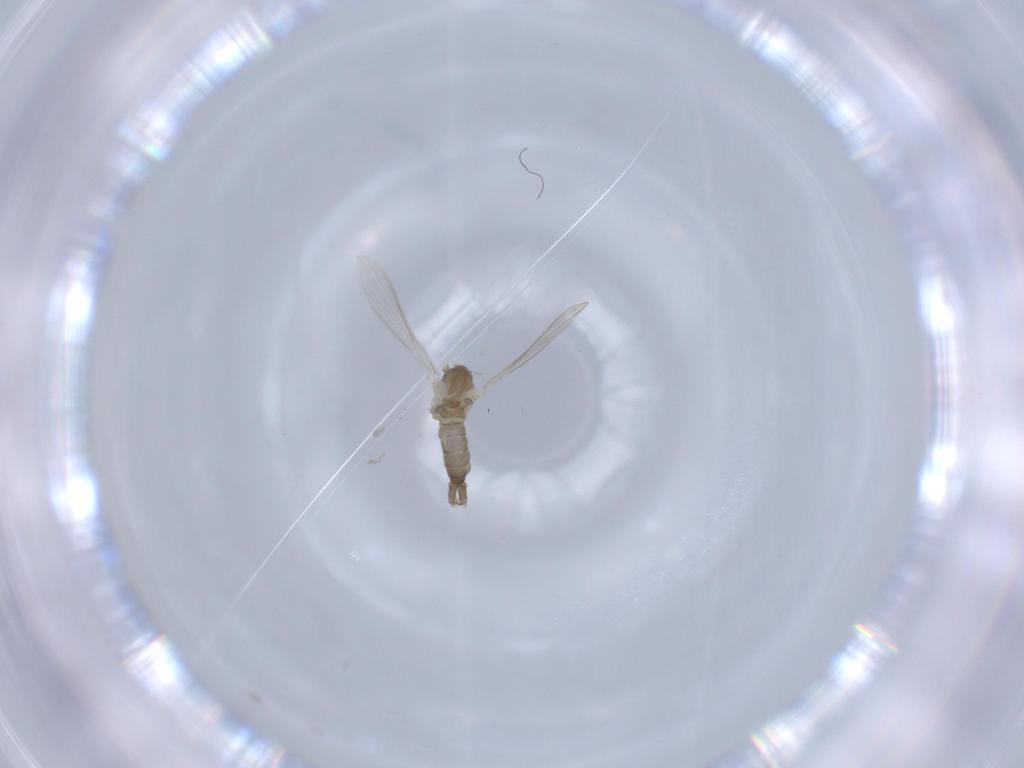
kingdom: Animalia
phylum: Arthropoda
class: Insecta
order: Diptera
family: Psychodidae
